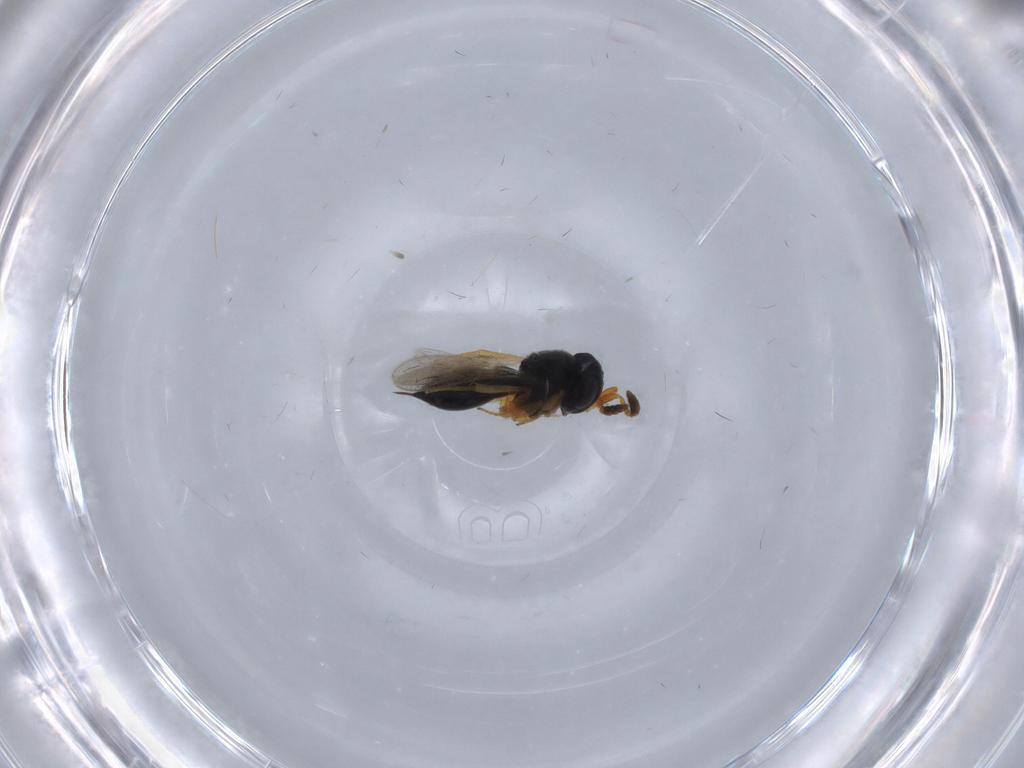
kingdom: Animalia
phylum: Arthropoda
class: Insecta
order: Hymenoptera
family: Scelionidae
